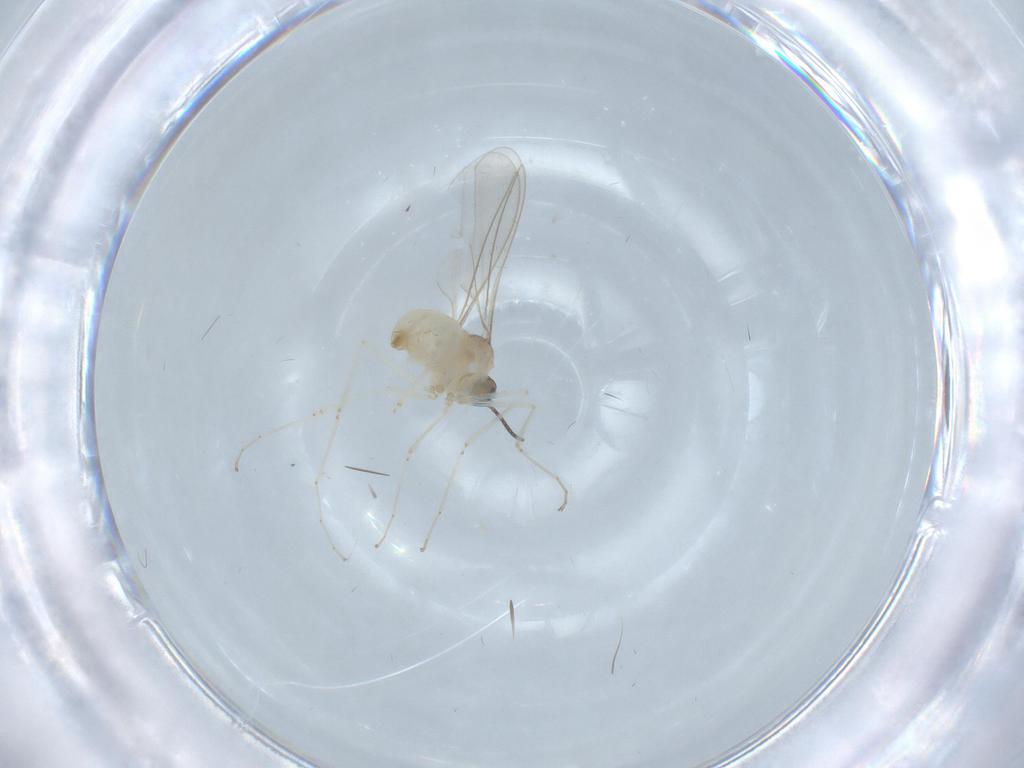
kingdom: Animalia
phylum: Arthropoda
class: Insecta
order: Diptera
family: Cecidomyiidae
